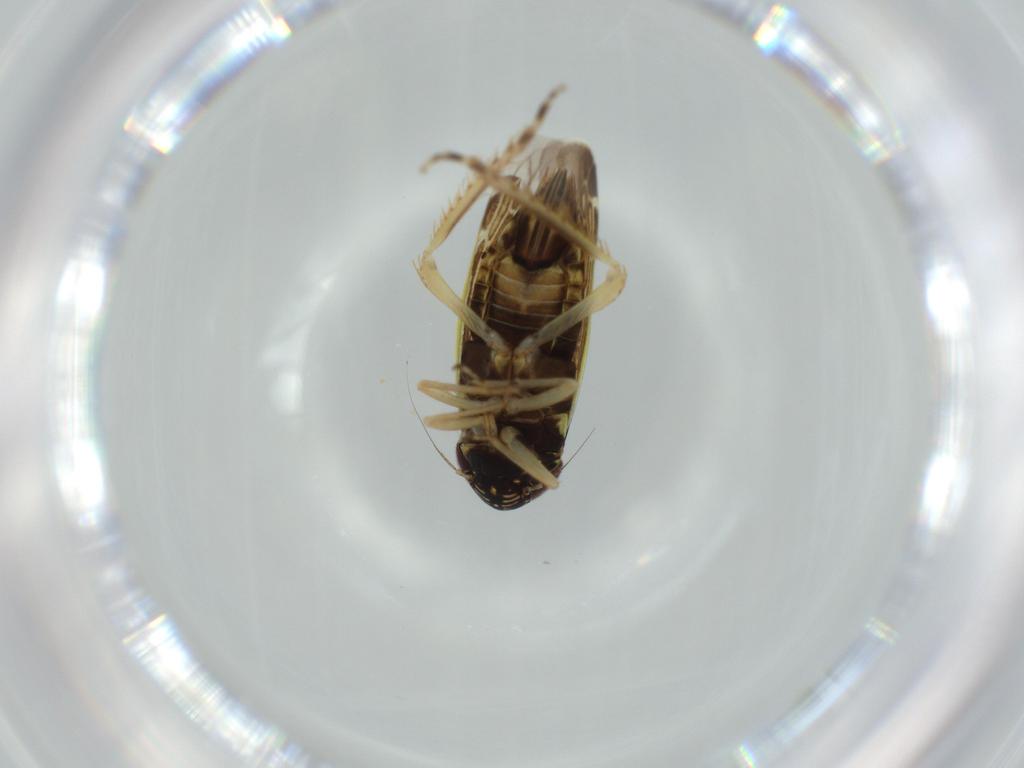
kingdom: Animalia
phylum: Arthropoda
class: Insecta
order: Hemiptera
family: Cicadellidae
